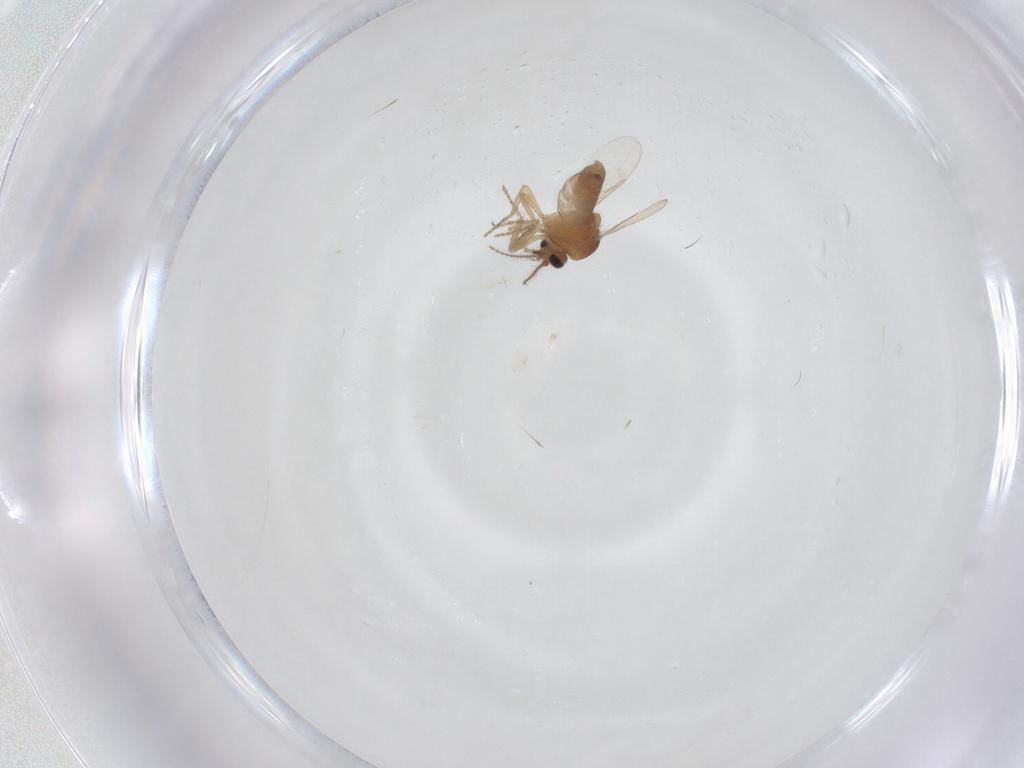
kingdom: Animalia
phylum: Arthropoda
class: Insecta
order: Diptera
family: Ceratopogonidae
